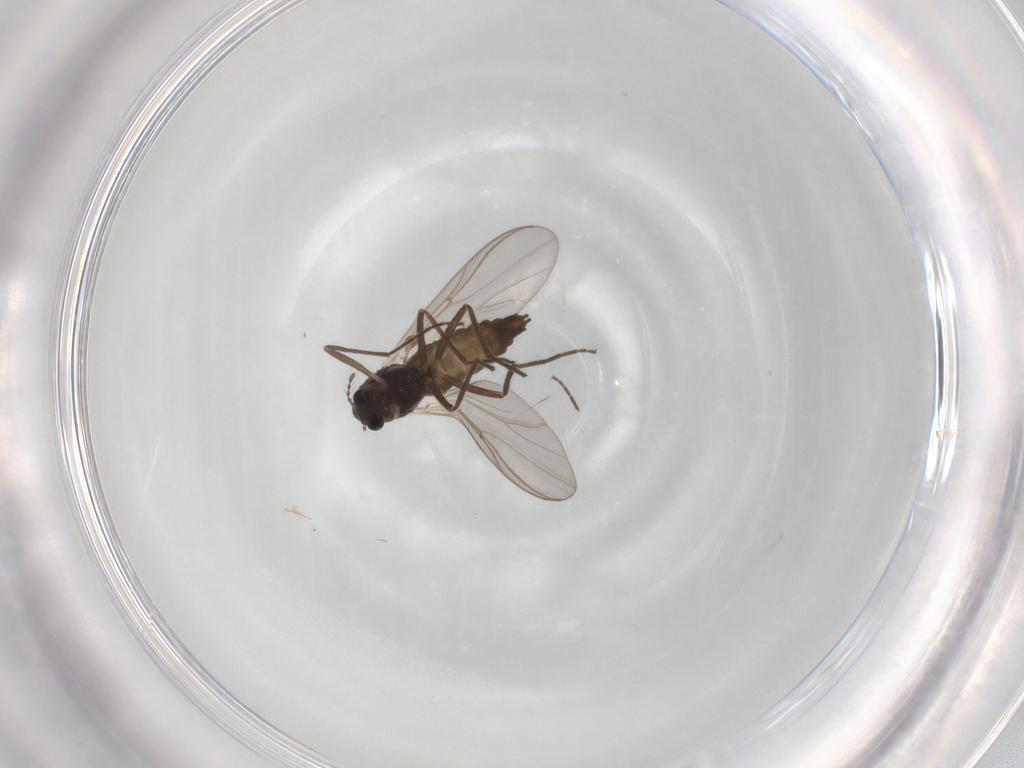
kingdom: Animalia
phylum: Arthropoda
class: Insecta
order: Diptera
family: Chironomidae
